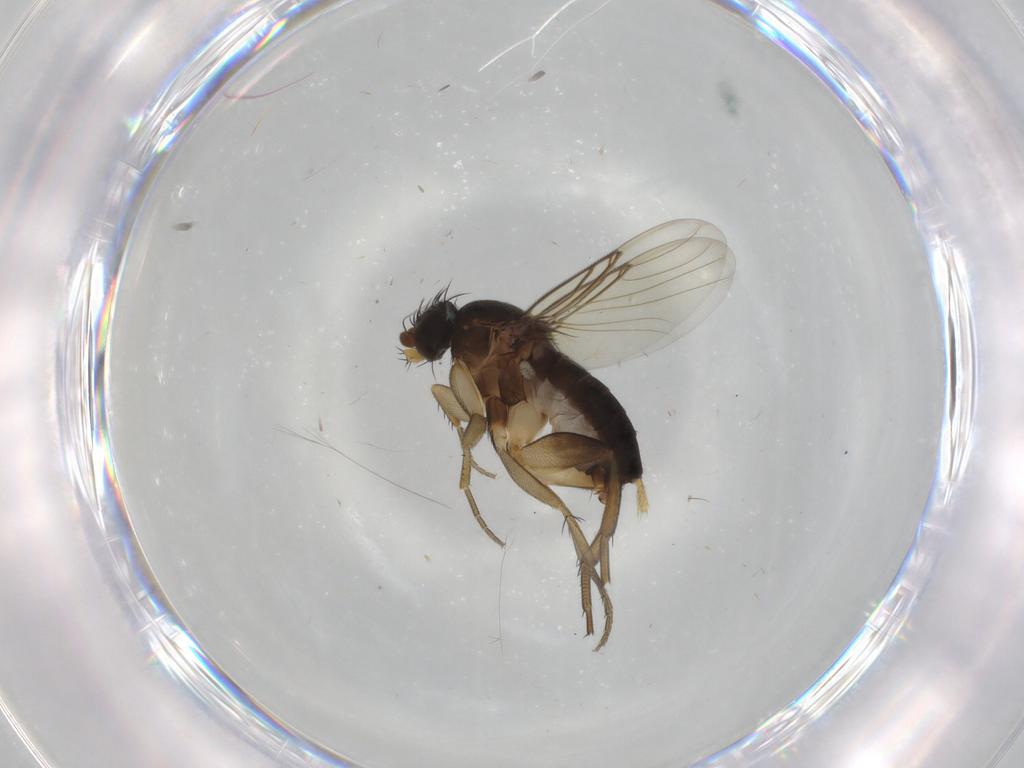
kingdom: Animalia
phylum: Arthropoda
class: Insecta
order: Diptera
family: Phoridae
